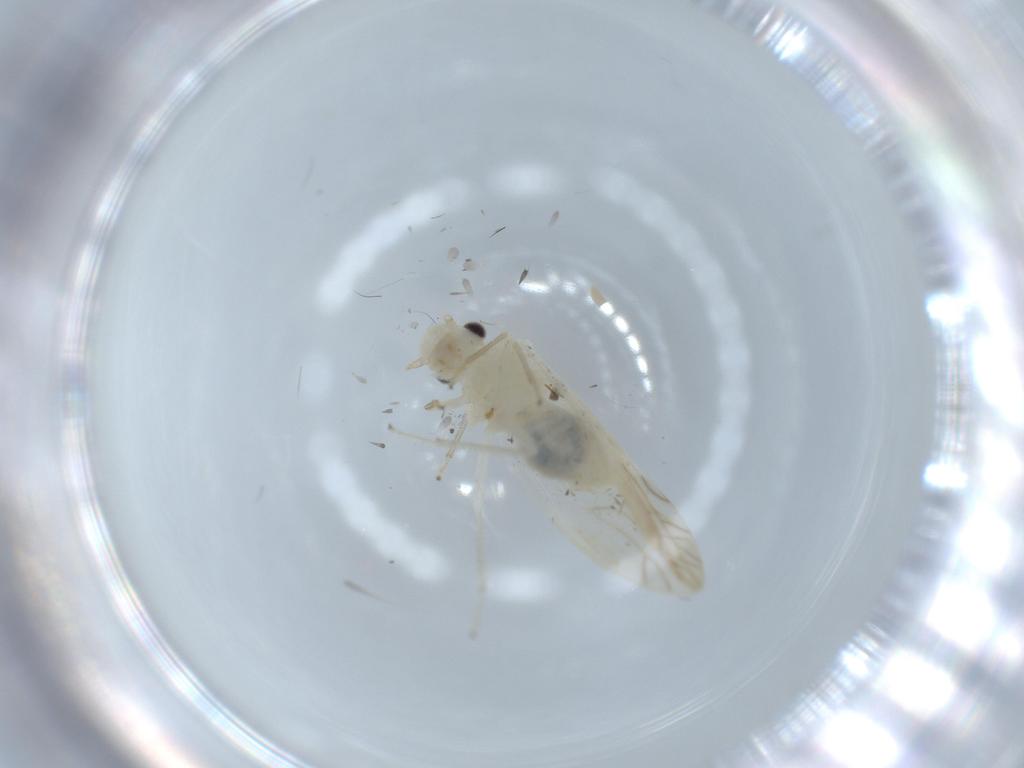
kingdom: Animalia
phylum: Arthropoda
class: Insecta
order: Psocodea
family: Caeciliusidae
